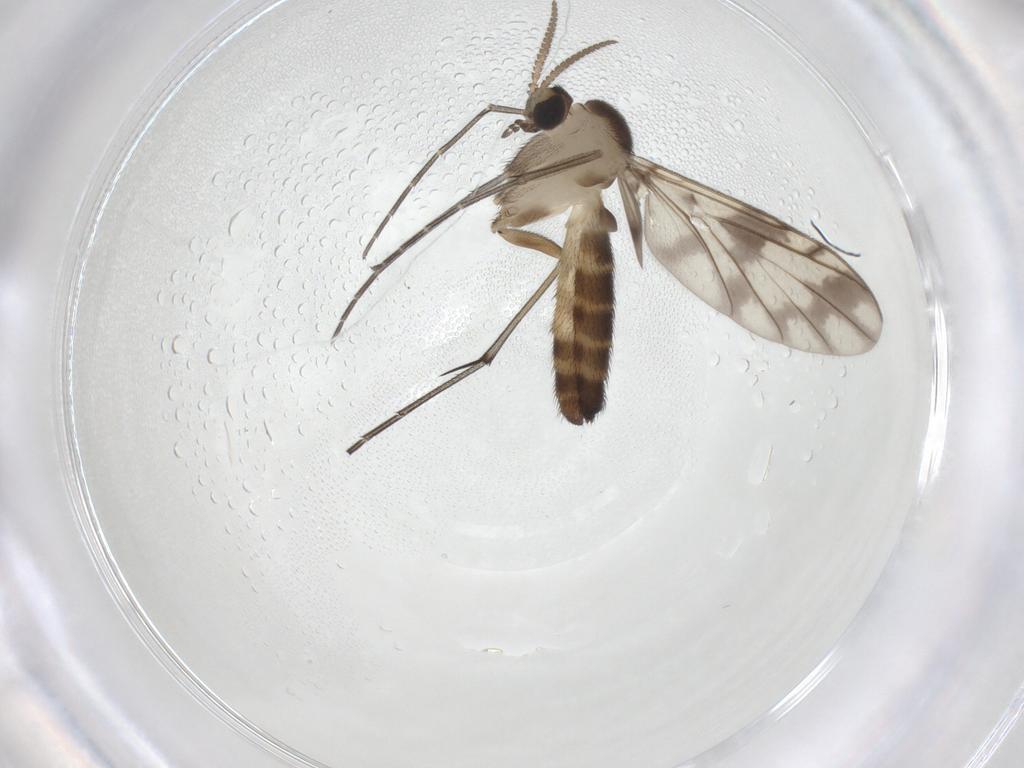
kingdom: Animalia
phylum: Arthropoda
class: Insecta
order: Diptera
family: Keroplatidae
